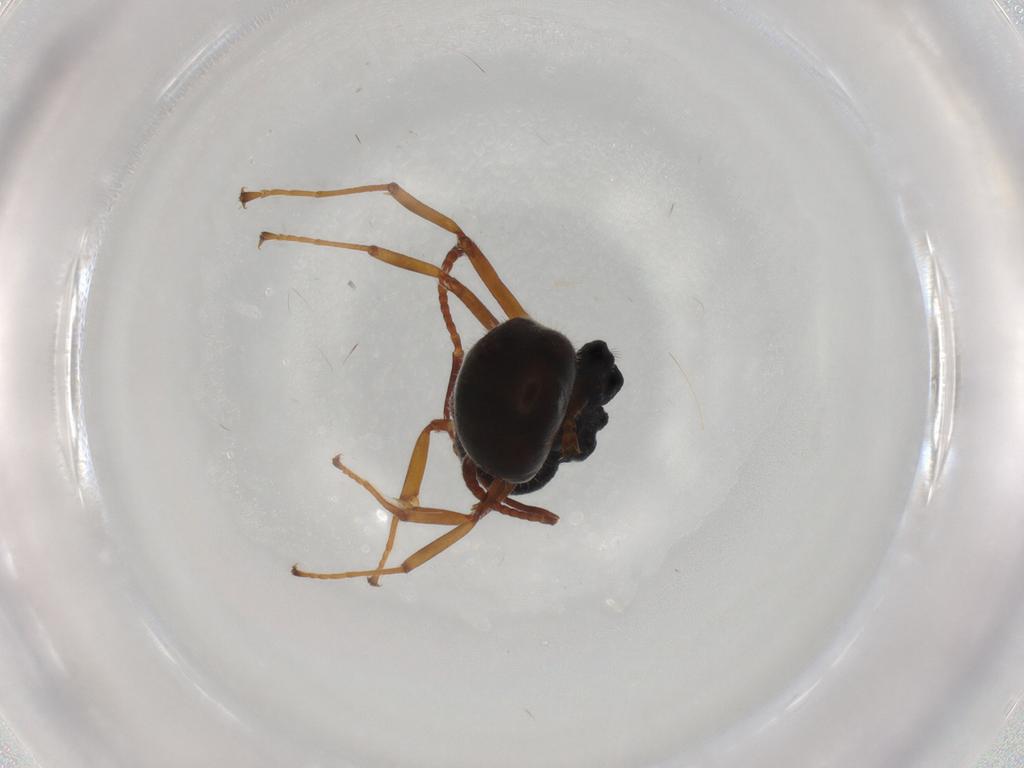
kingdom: Animalia
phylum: Arthropoda
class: Insecta
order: Hymenoptera
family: Formicidae
